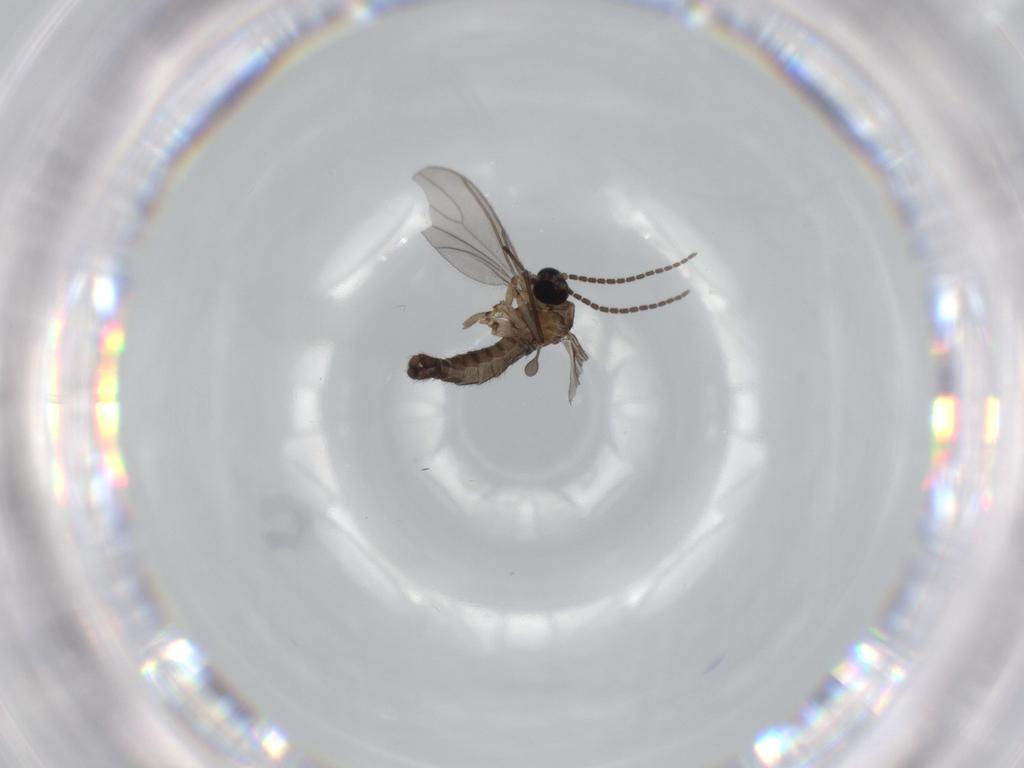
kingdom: Animalia
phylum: Arthropoda
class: Insecta
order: Diptera
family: Sciaridae
